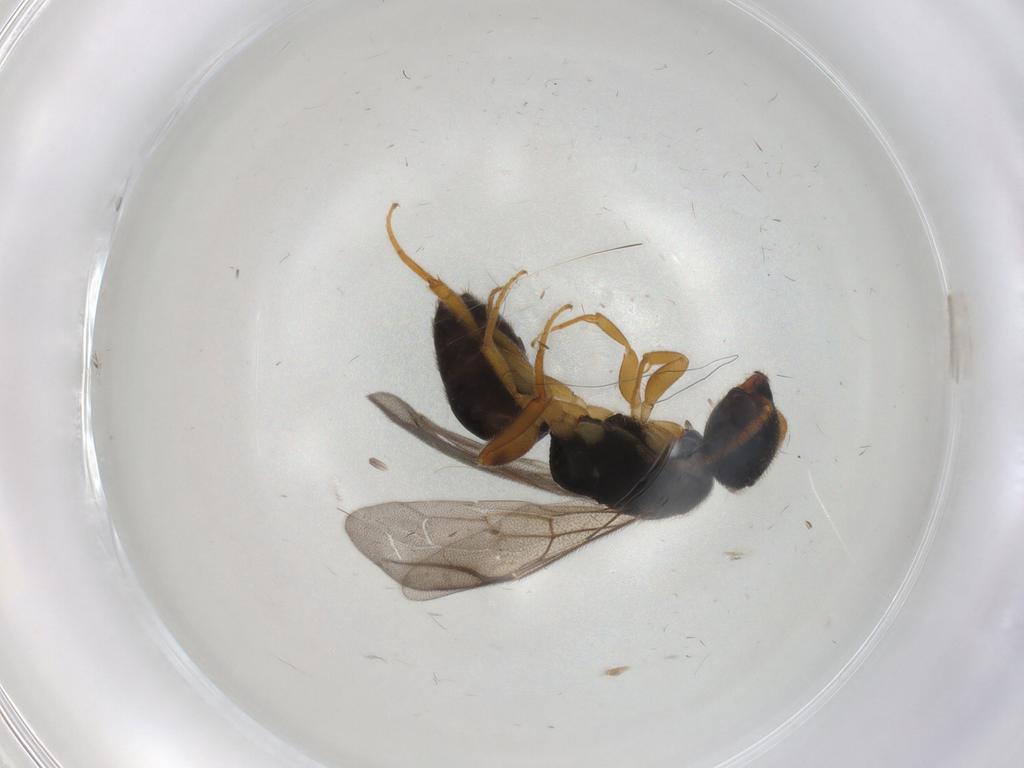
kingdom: Animalia
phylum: Arthropoda
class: Insecta
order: Hymenoptera
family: Bethylidae
